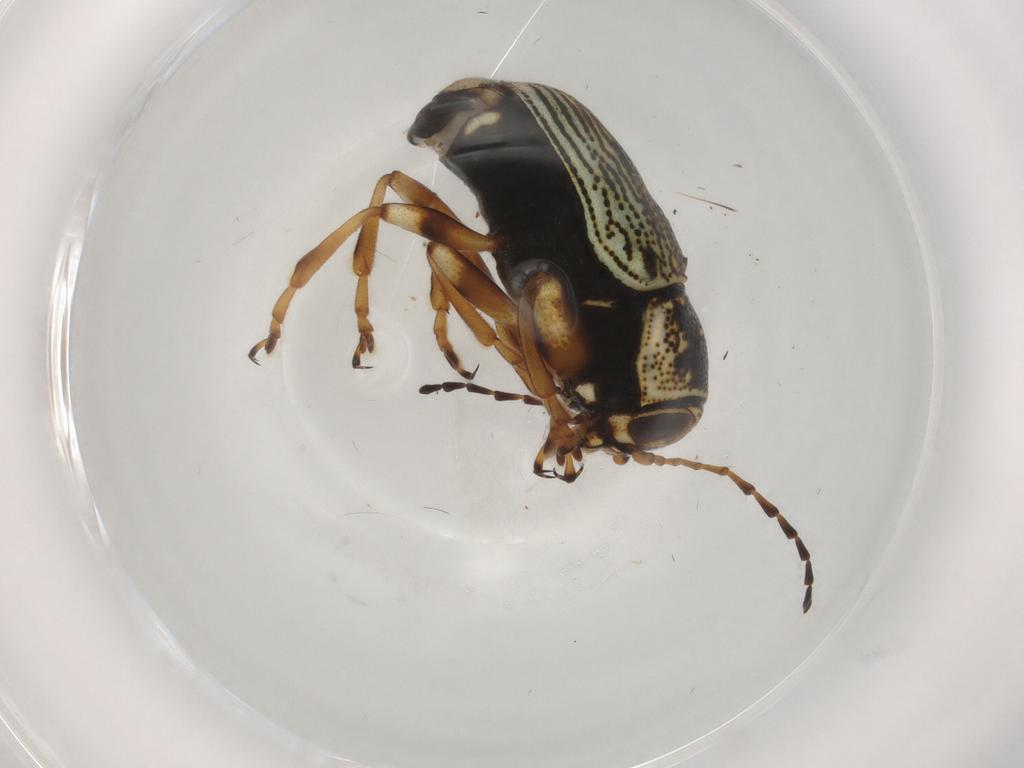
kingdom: Animalia
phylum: Arthropoda
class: Insecta
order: Coleoptera
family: Chrysomelidae
